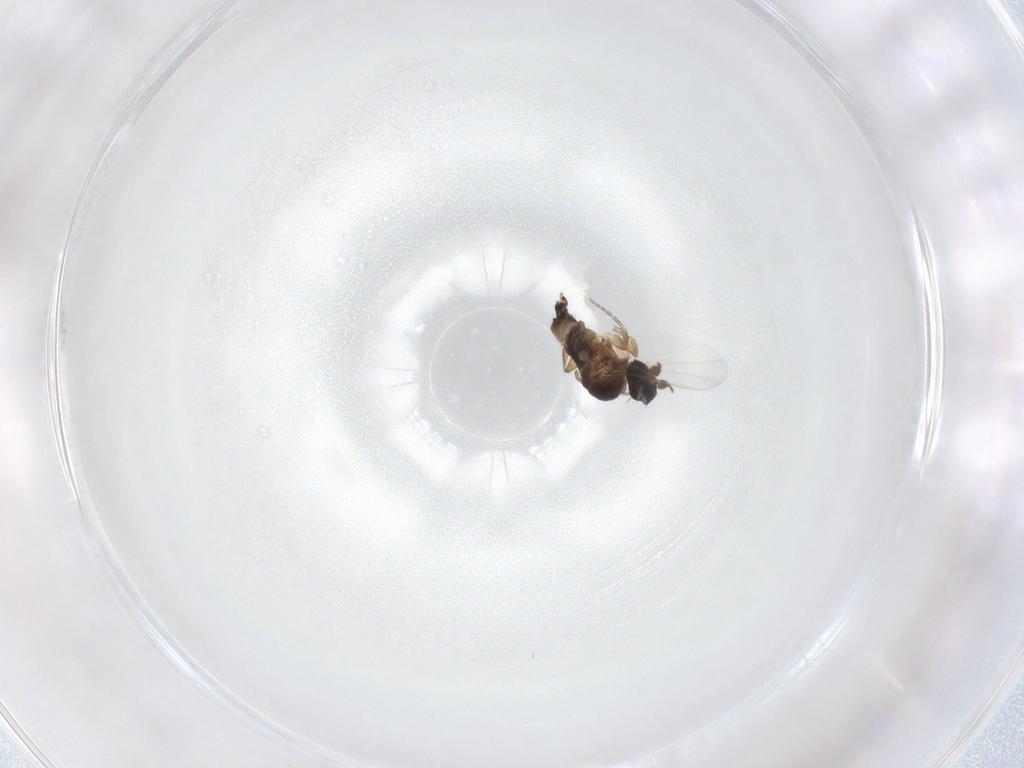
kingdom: Animalia
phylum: Arthropoda
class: Insecta
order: Diptera
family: Phoridae
